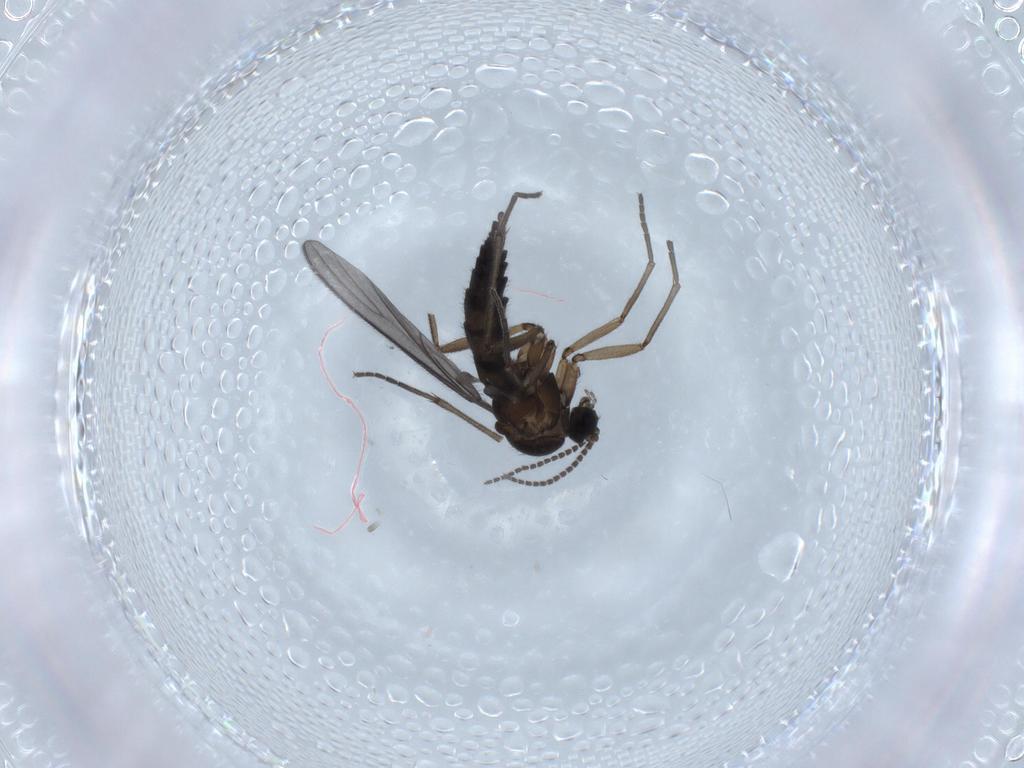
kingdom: Animalia
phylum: Arthropoda
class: Insecta
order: Diptera
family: Sciaridae
